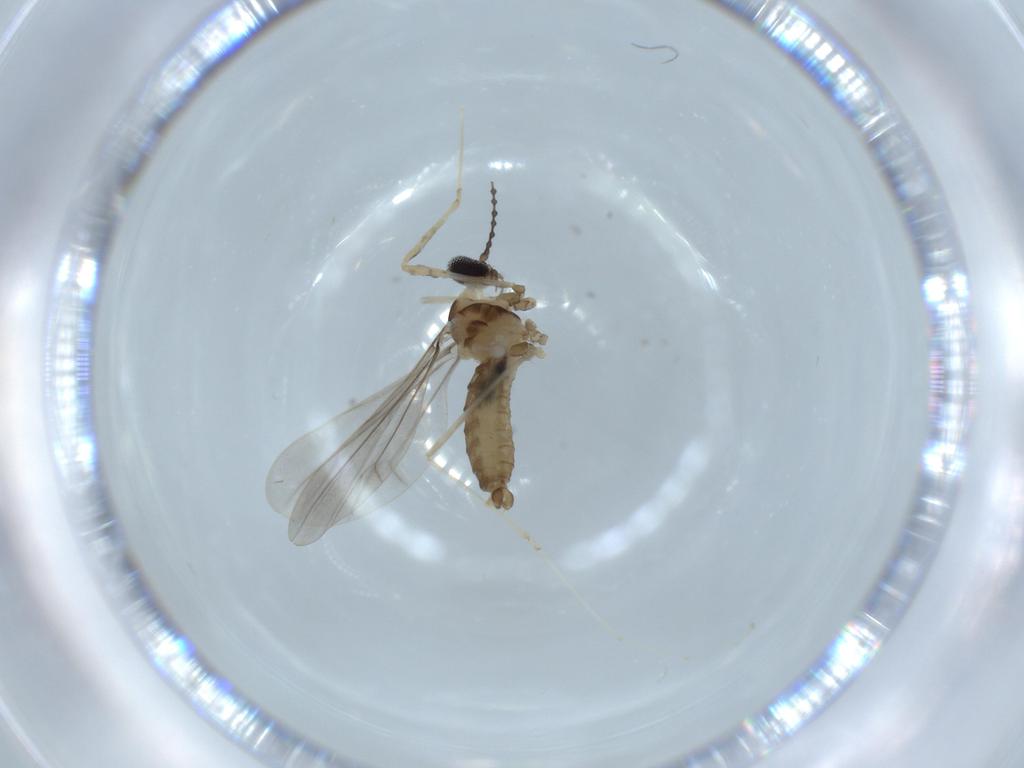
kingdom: Animalia
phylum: Arthropoda
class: Insecta
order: Diptera
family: Cecidomyiidae
